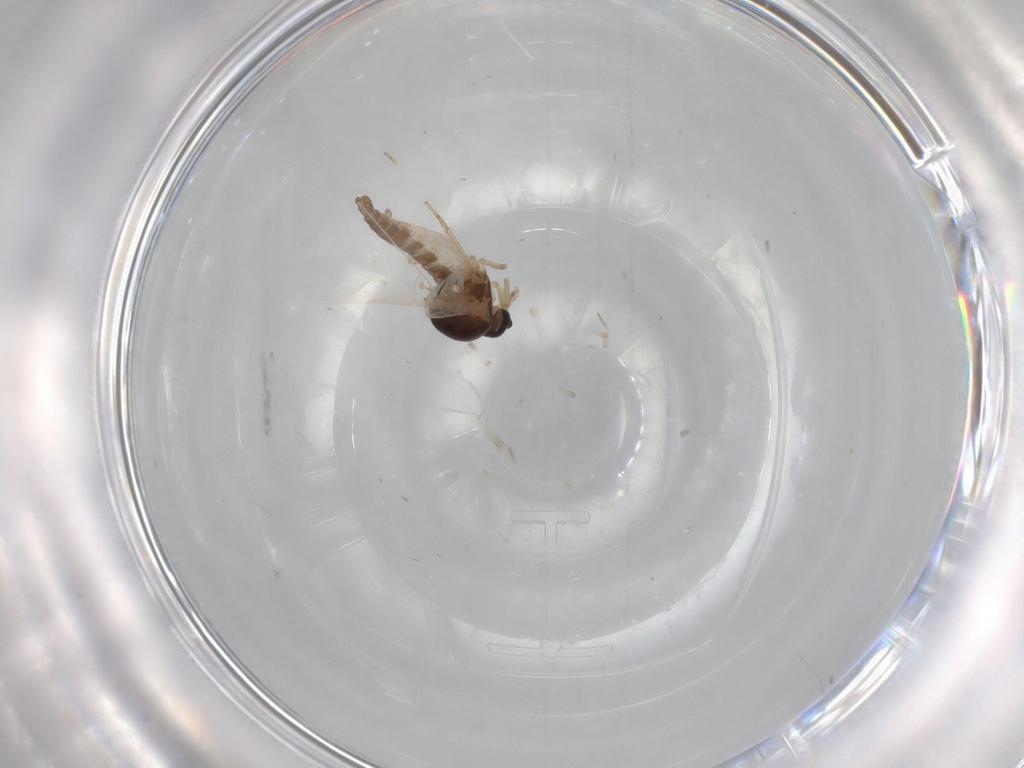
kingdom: Animalia
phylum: Arthropoda
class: Insecta
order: Diptera
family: Ceratopogonidae
